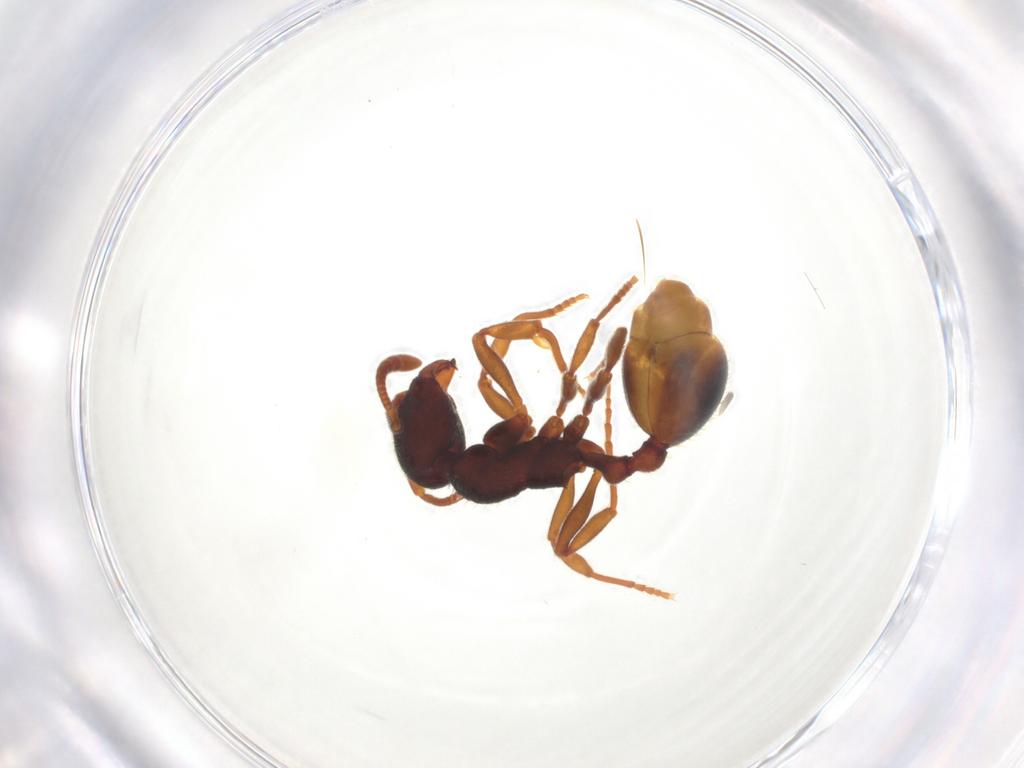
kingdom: Animalia
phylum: Arthropoda
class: Insecta
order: Hymenoptera
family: Formicidae
